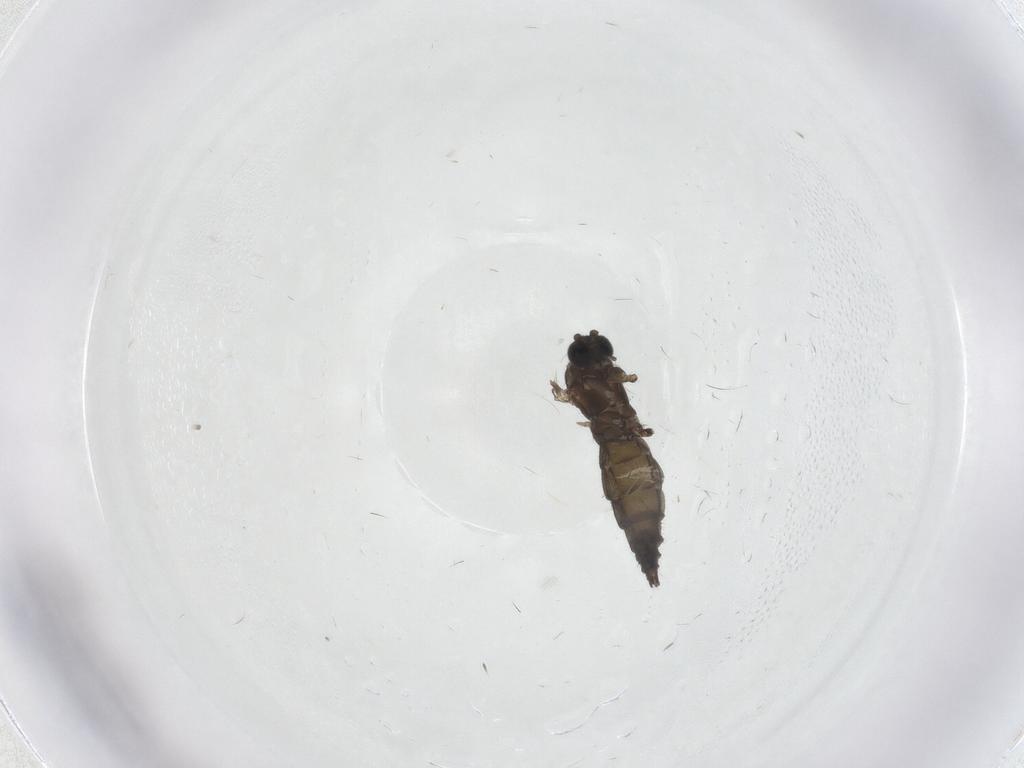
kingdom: Animalia
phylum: Arthropoda
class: Insecta
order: Diptera
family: Sciaridae
